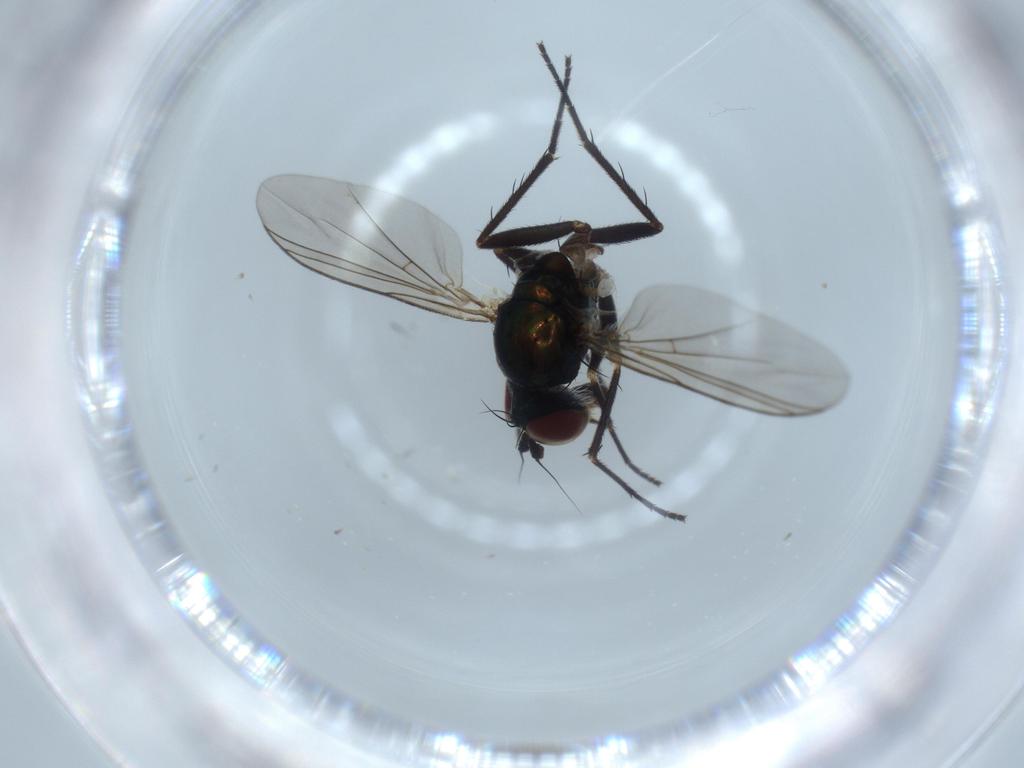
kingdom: Animalia
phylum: Arthropoda
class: Insecta
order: Diptera
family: Dolichopodidae
